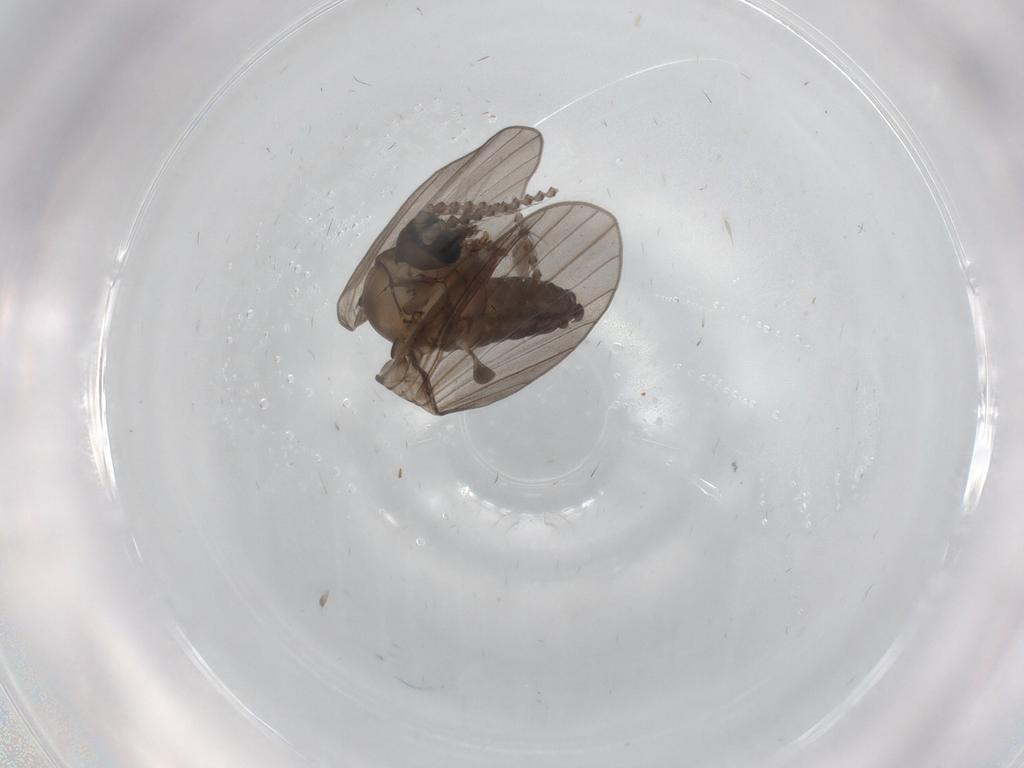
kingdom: Animalia
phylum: Arthropoda
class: Insecta
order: Diptera
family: Psychodidae
